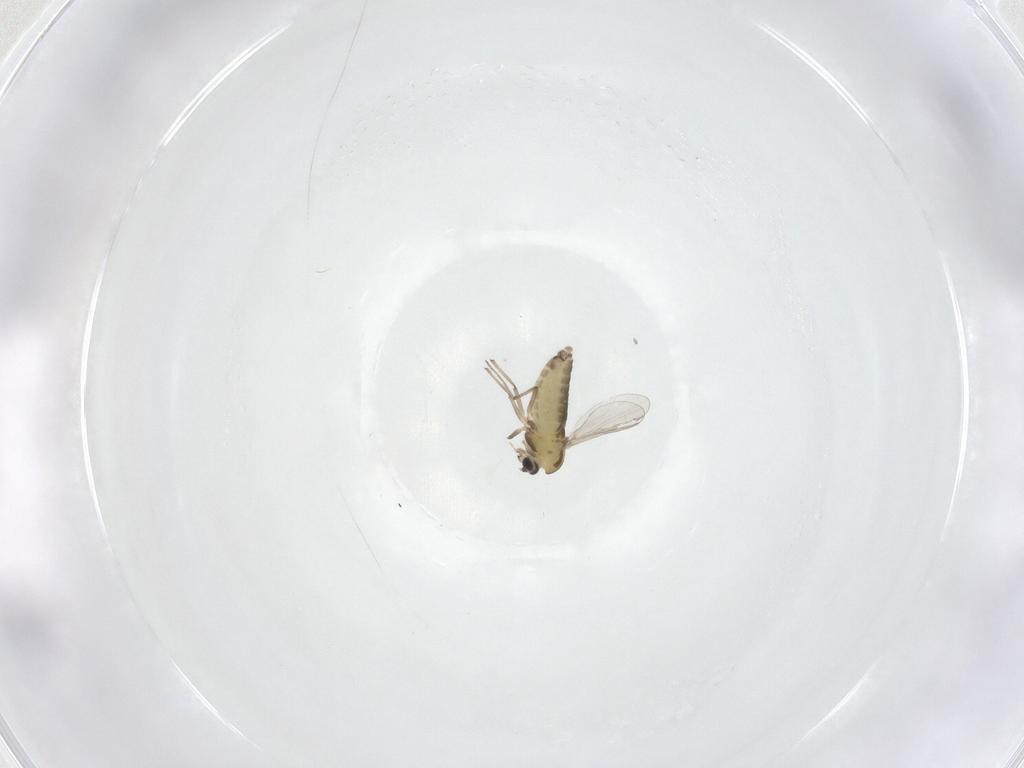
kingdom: Animalia
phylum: Arthropoda
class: Insecta
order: Diptera
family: Chironomidae
